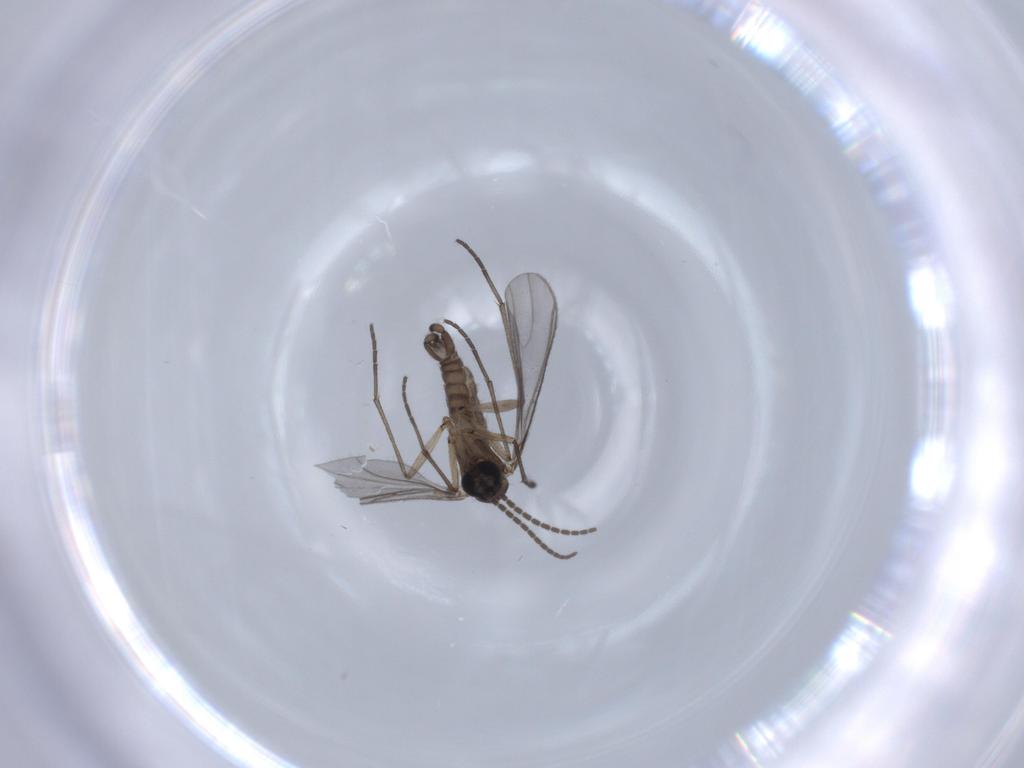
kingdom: Animalia
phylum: Arthropoda
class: Insecta
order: Diptera
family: Sciaridae
